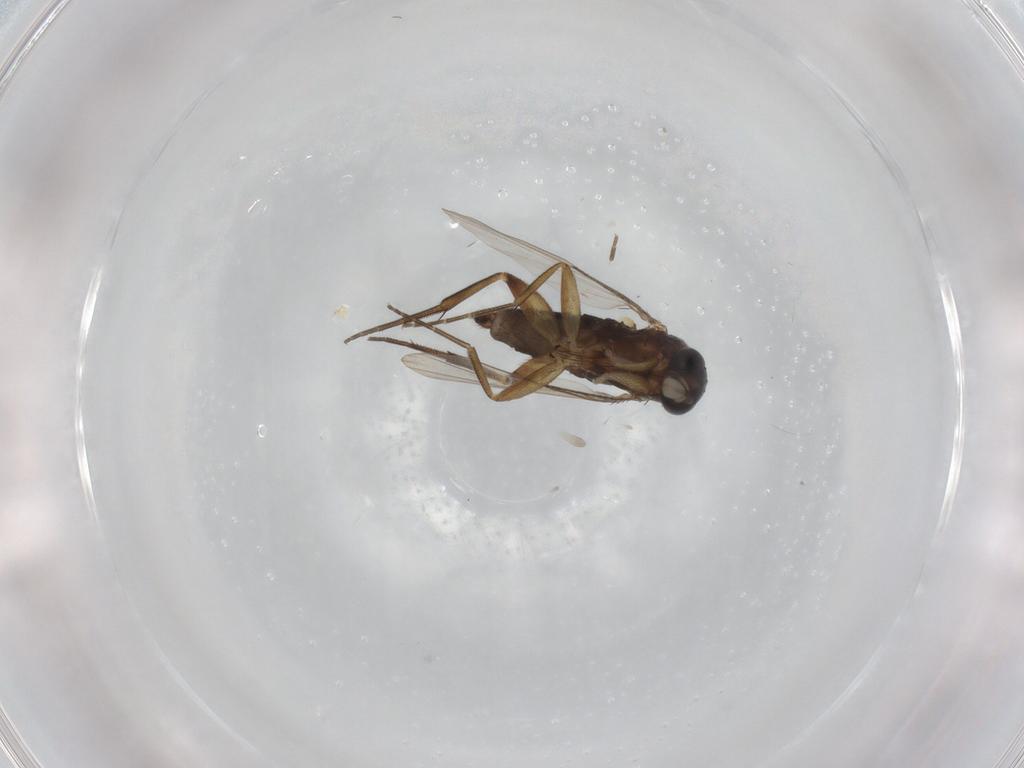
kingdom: Animalia
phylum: Arthropoda
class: Insecta
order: Diptera
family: Phoridae
